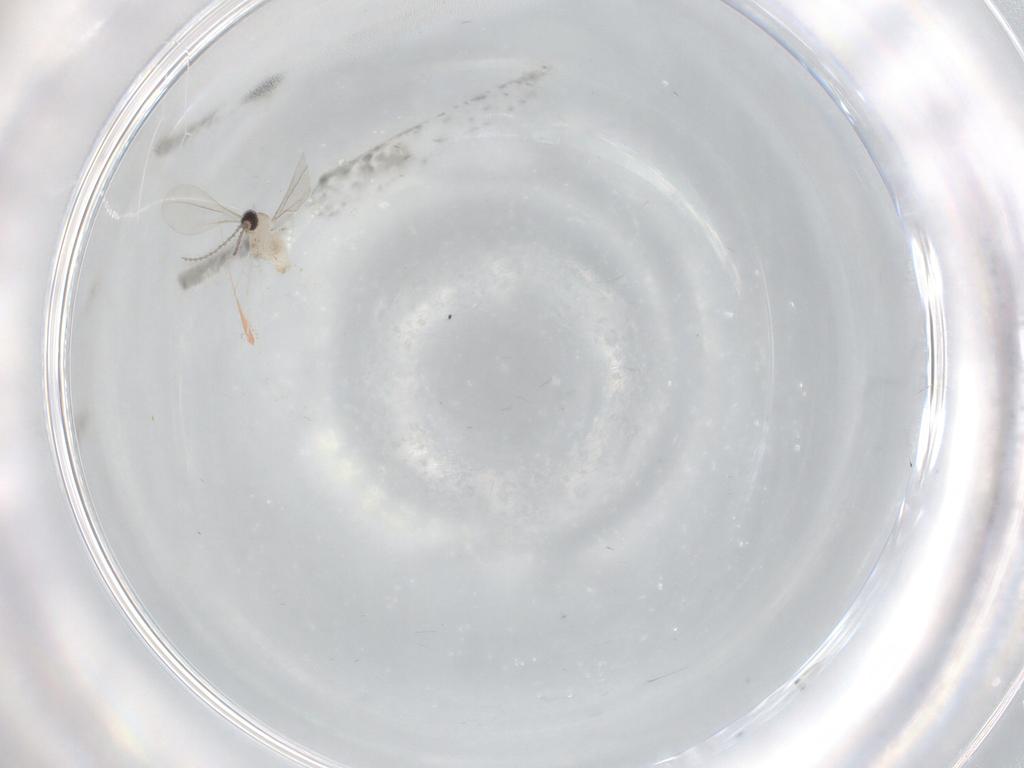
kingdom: Animalia
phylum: Arthropoda
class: Insecta
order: Diptera
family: Cecidomyiidae
